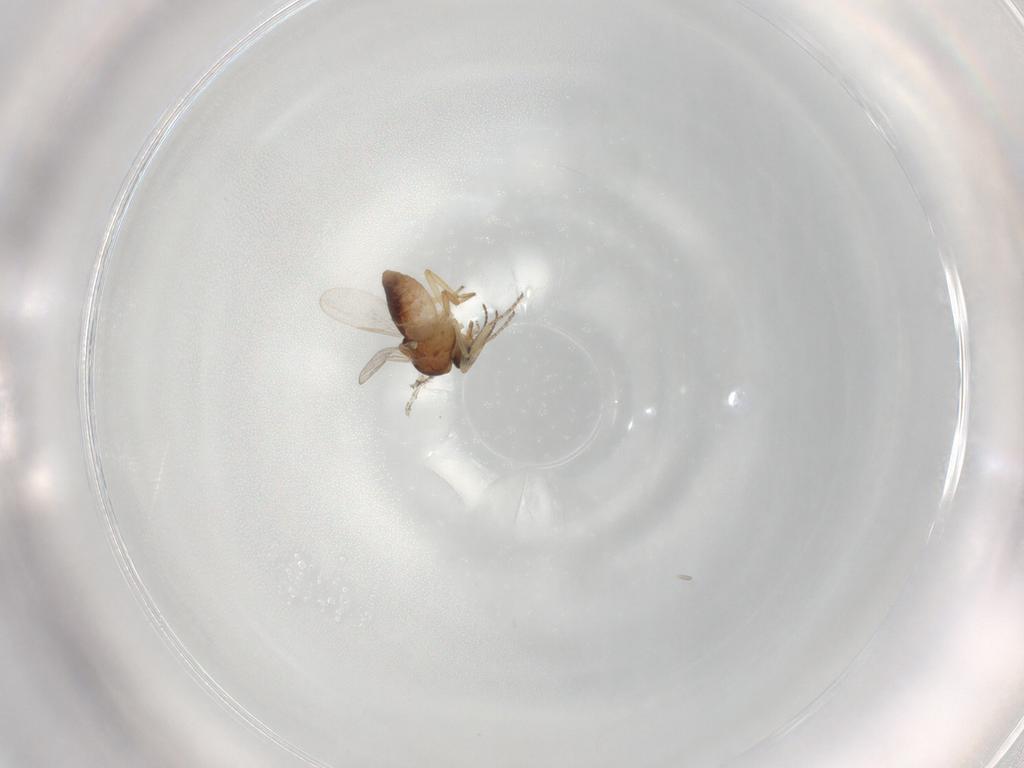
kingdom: Animalia
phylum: Arthropoda
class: Insecta
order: Diptera
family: Ceratopogonidae
